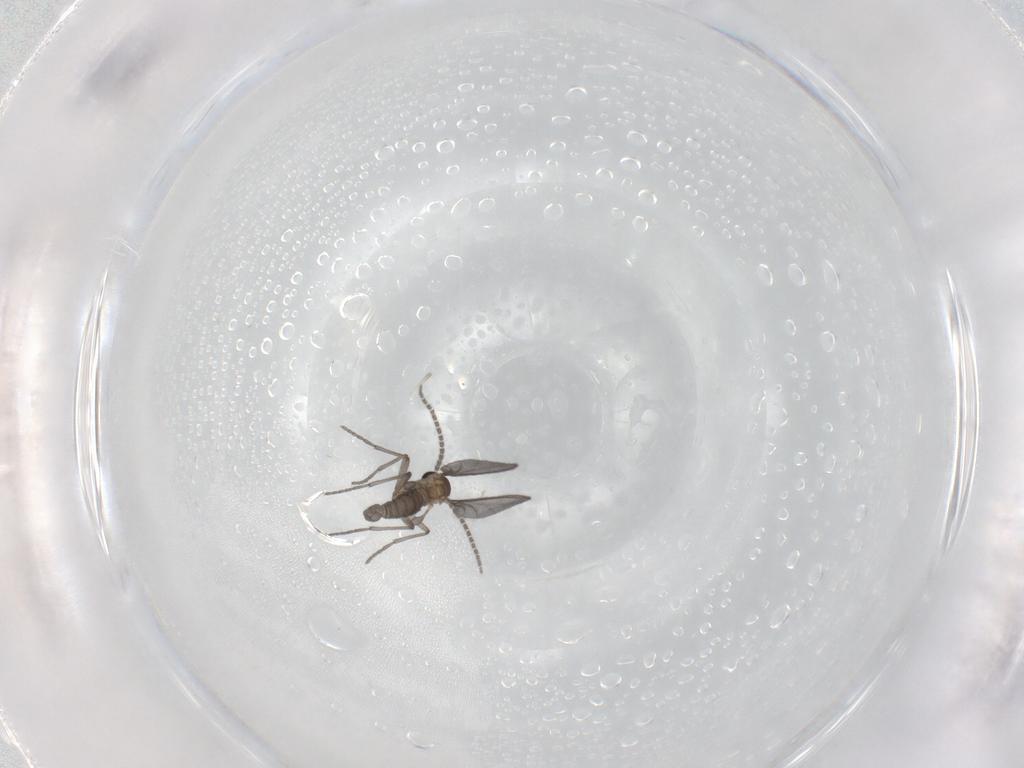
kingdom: Animalia
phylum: Arthropoda
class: Insecta
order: Diptera
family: Sciaridae
